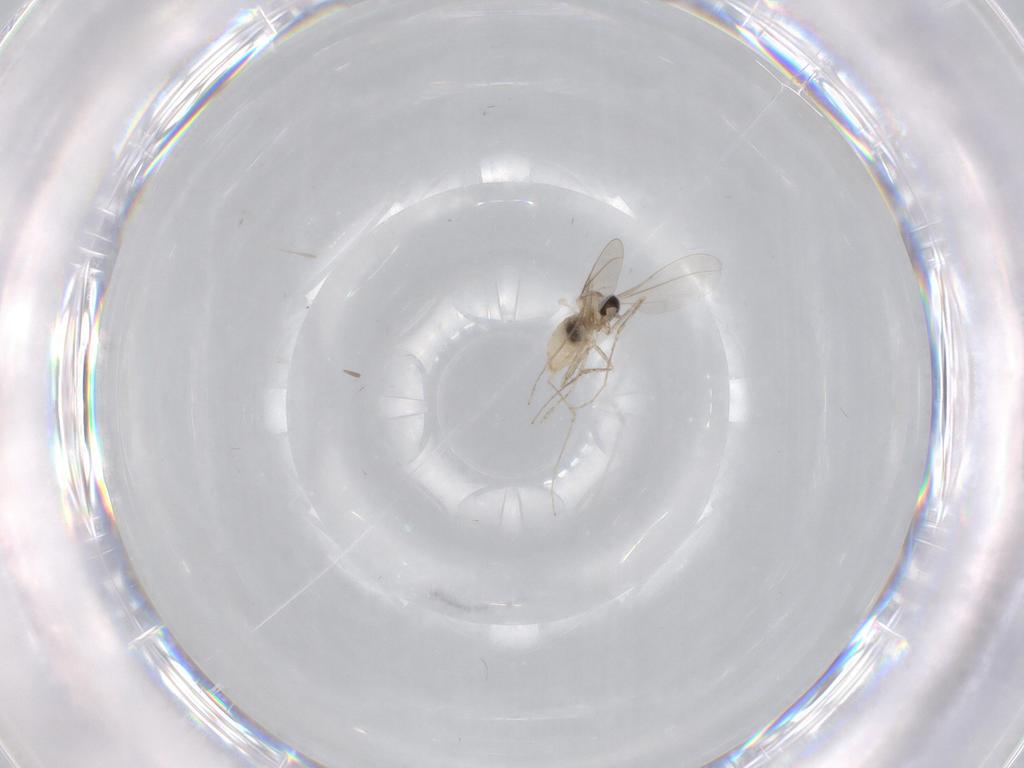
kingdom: Animalia
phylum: Arthropoda
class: Insecta
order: Diptera
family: Cecidomyiidae
